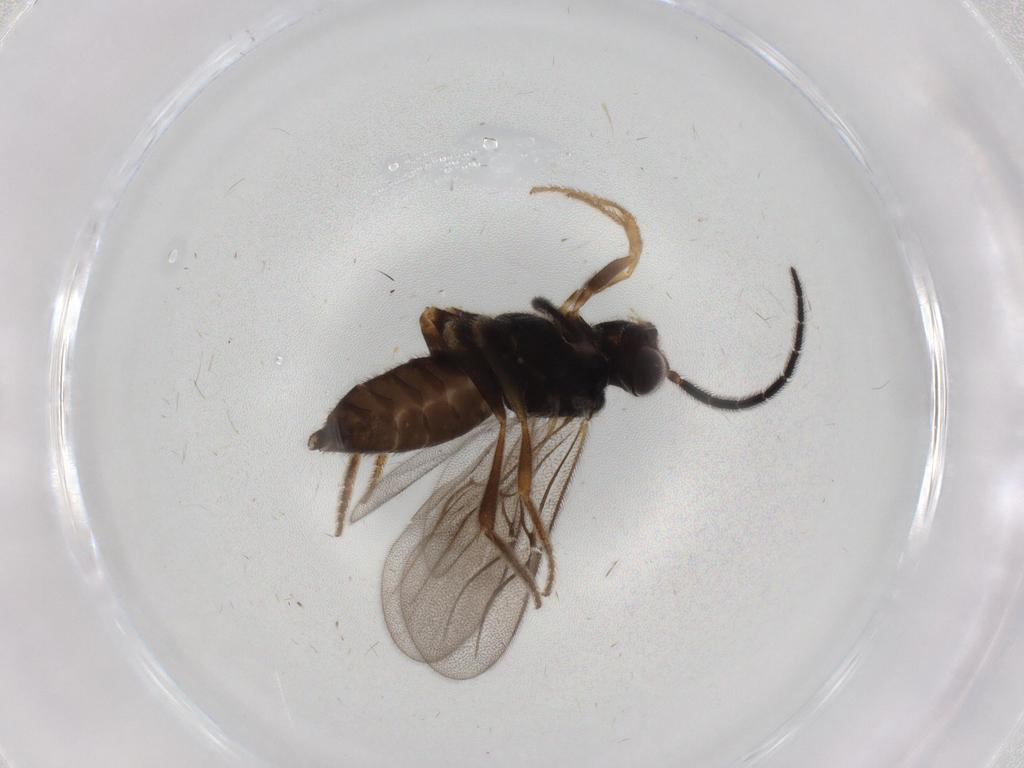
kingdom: Animalia
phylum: Arthropoda
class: Insecta
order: Hymenoptera
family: Dryinidae
